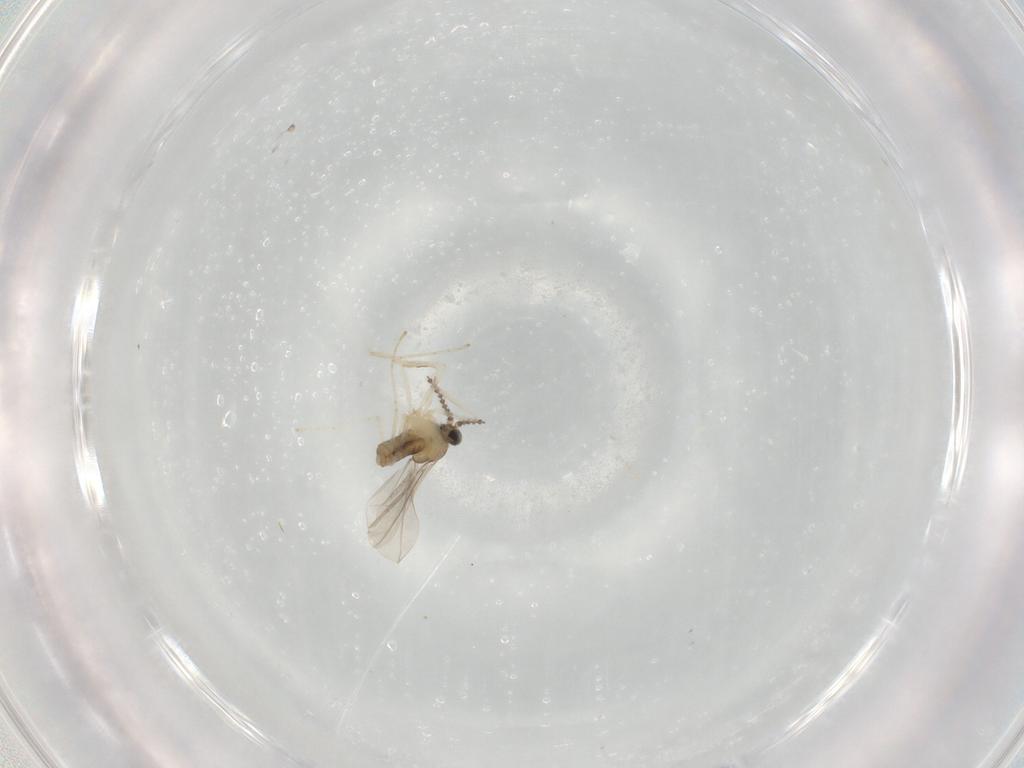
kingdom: Animalia
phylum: Arthropoda
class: Insecta
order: Diptera
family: Cecidomyiidae
